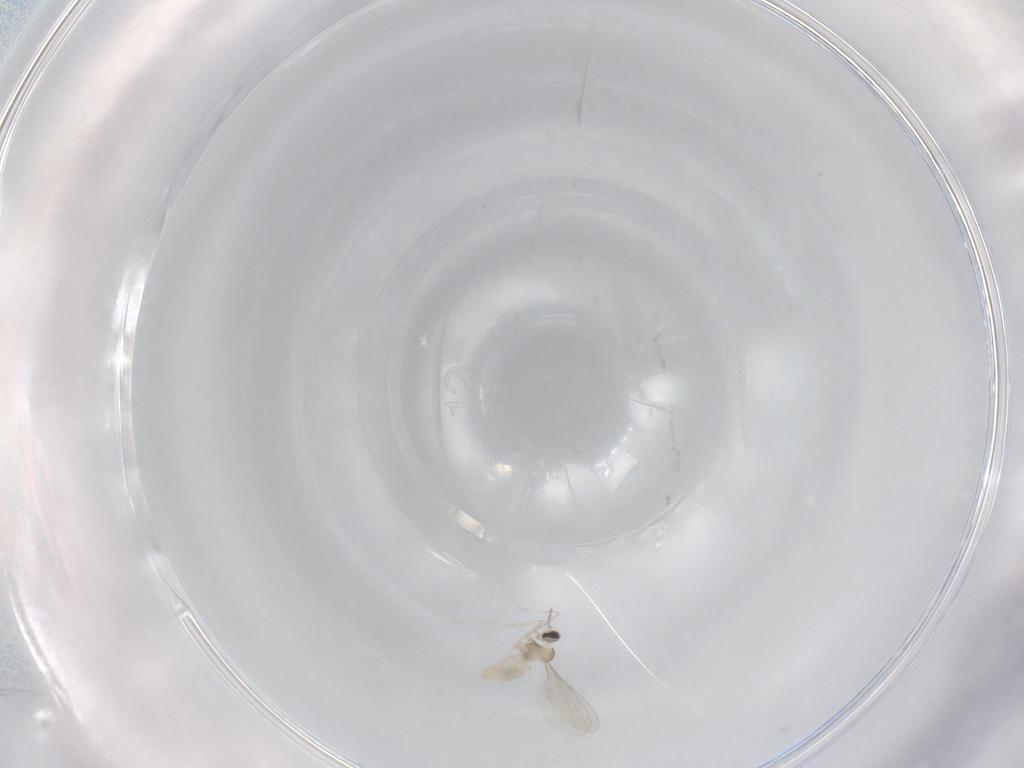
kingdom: Animalia
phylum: Arthropoda
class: Insecta
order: Diptera
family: Cecidomyiidae
